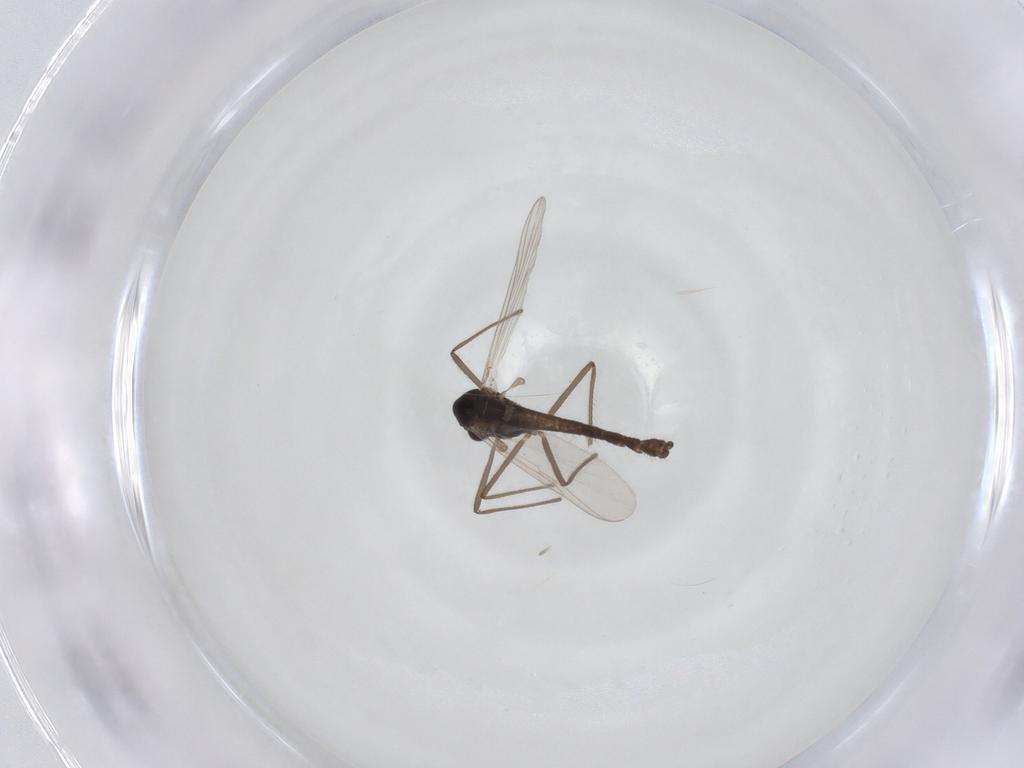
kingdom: Animalia
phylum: Arthropoda
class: Insecta
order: Diptera
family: Chironomidae
